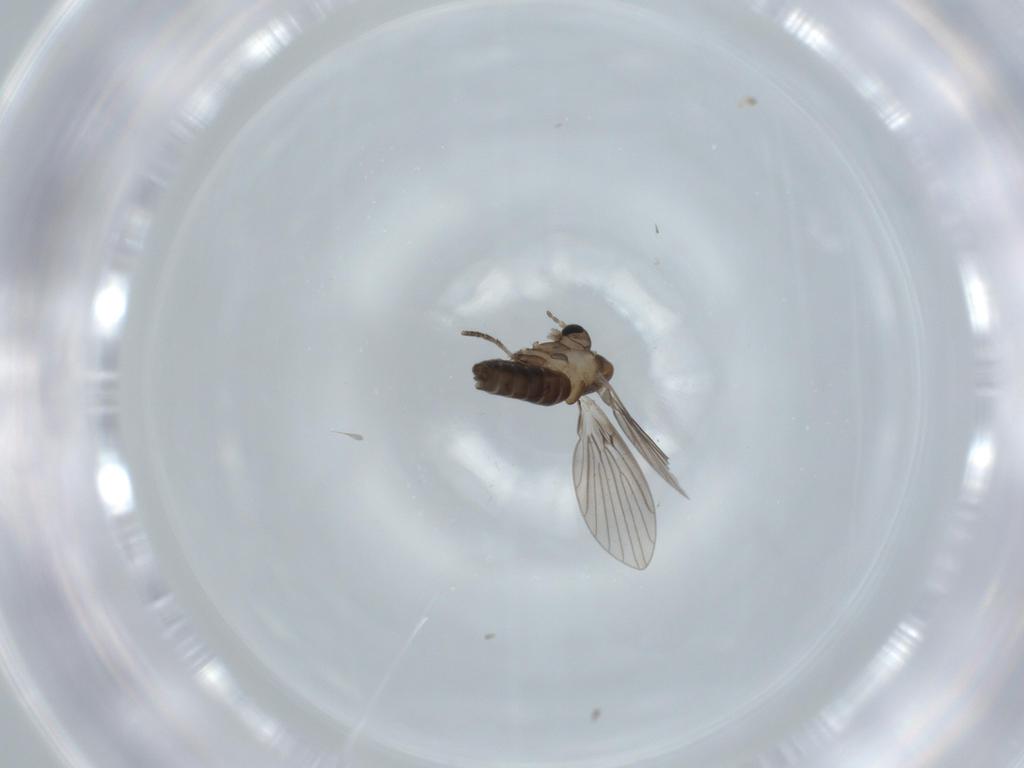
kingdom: Animalia
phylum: Arthropoda
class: Insecta
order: Diptera
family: Psychodidae
